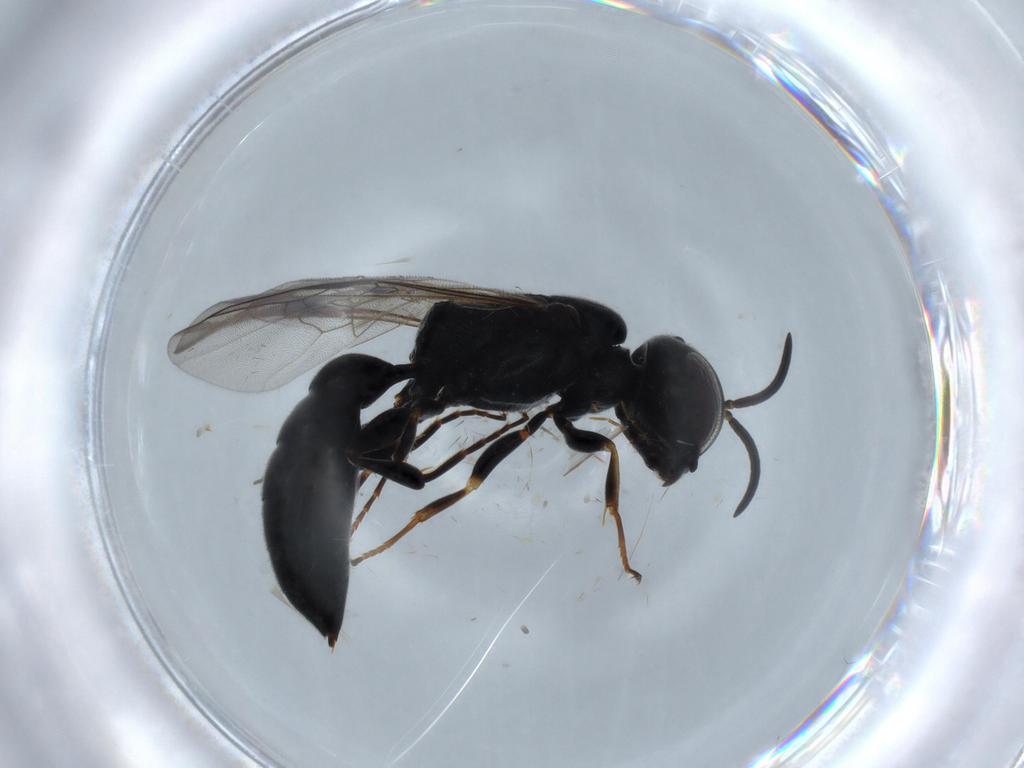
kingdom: Animalia
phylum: Arthropoda
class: Insecta
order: Hymenoptera
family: Pemphredonidae
